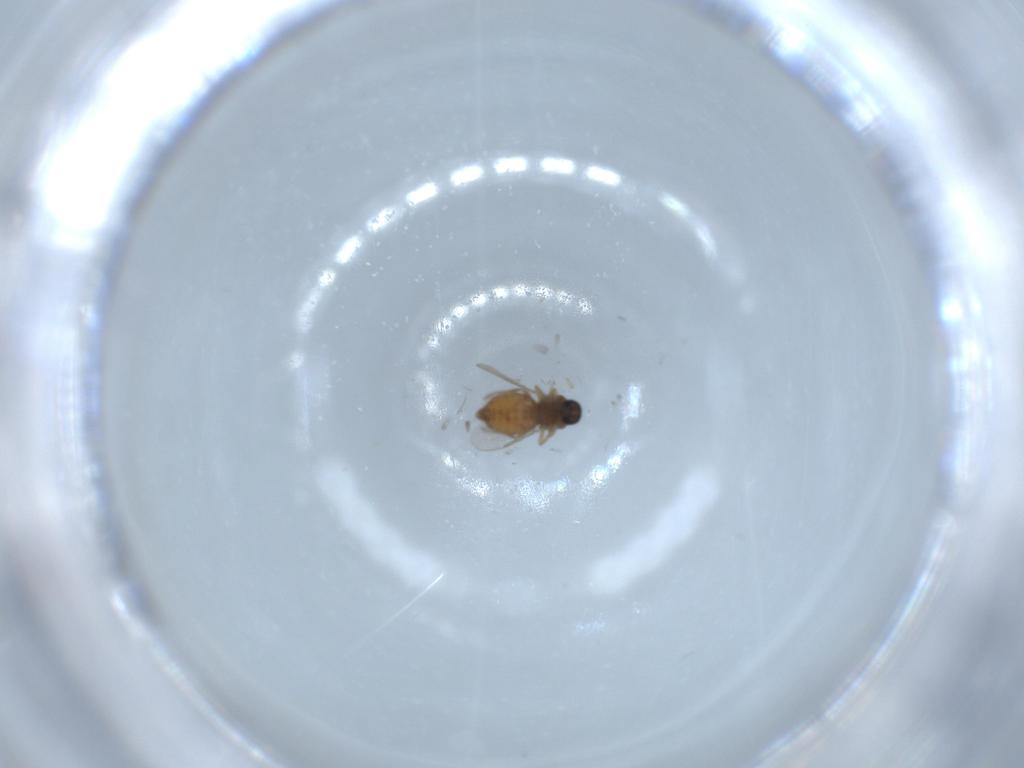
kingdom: Animalia
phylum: Arthropoda
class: Insecta
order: Diptera
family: Ceratopogonidae
